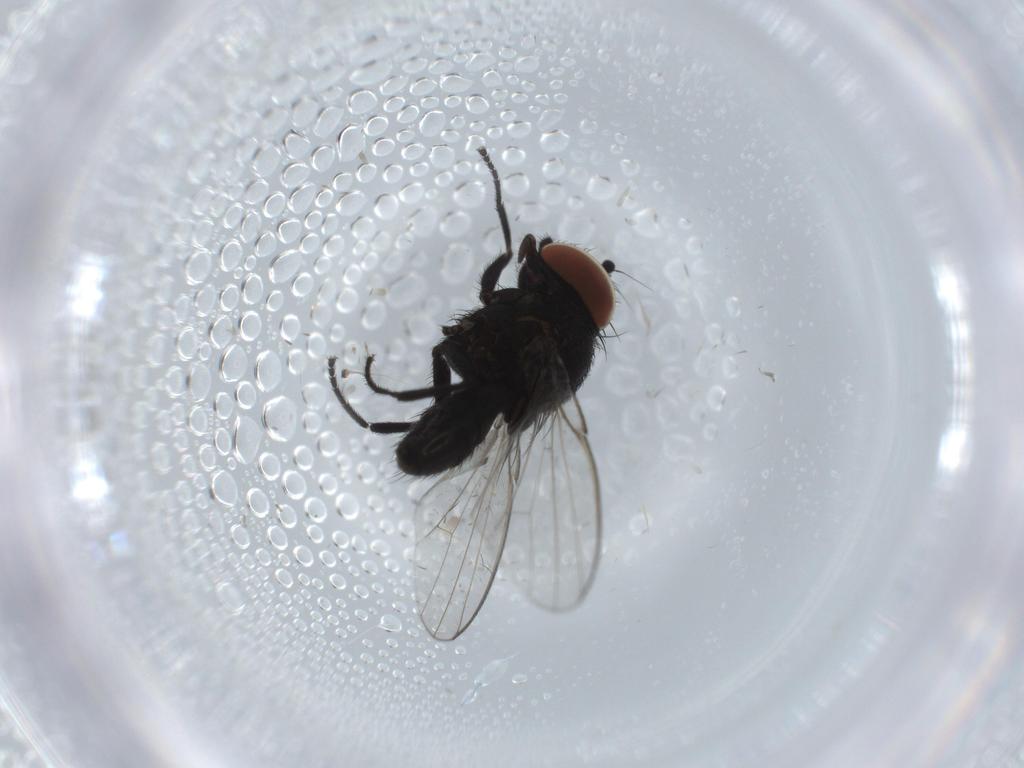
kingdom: Animalia
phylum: Arthropoda
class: Insecta
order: Diptera
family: Milichiidae
